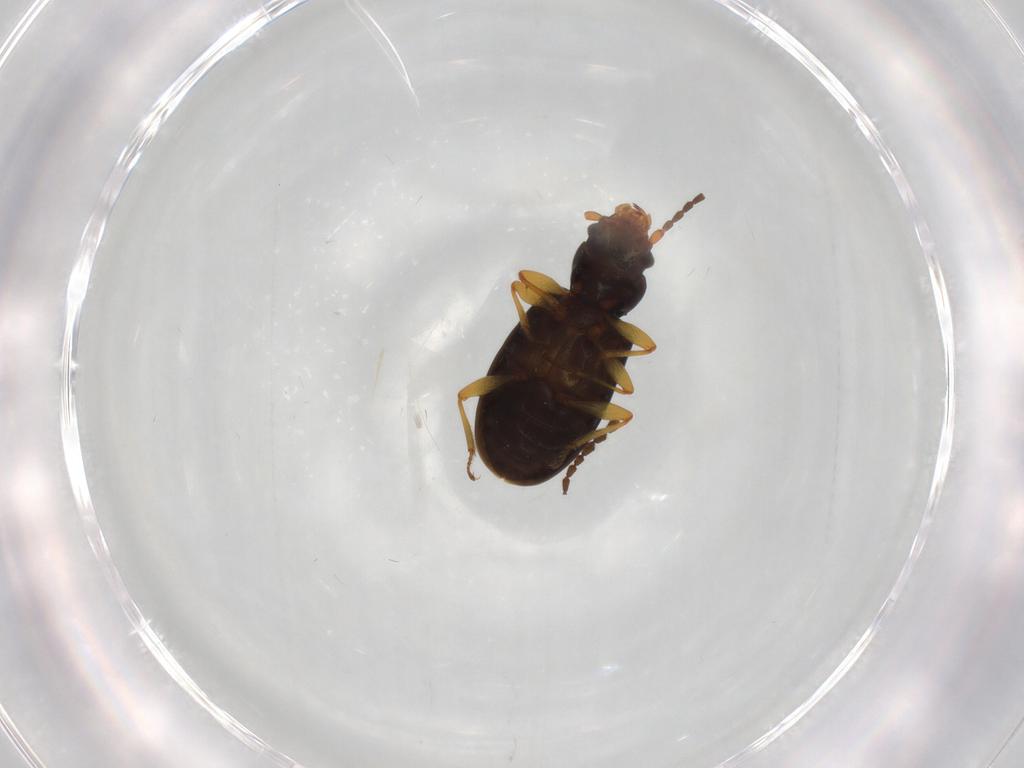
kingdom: Animalia
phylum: Arthropoda
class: Insecta
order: Coleoptera
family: Laemophloeidae
